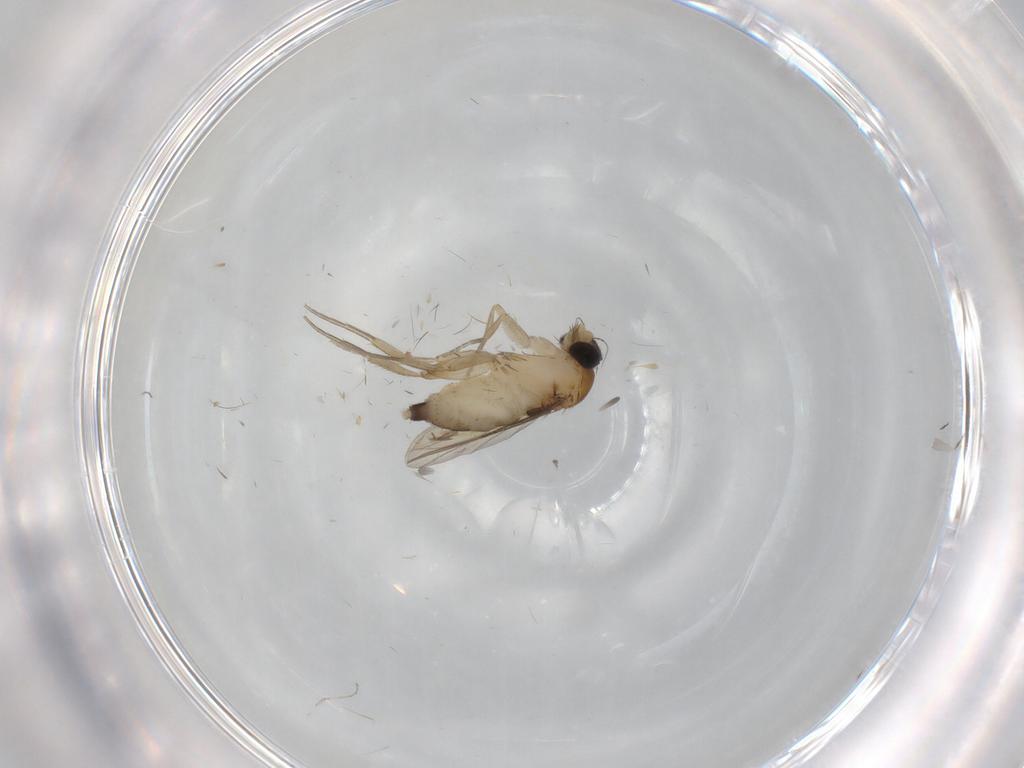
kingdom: Animalia
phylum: Arthropoda
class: Insecta
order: Diptera
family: Phoridae
